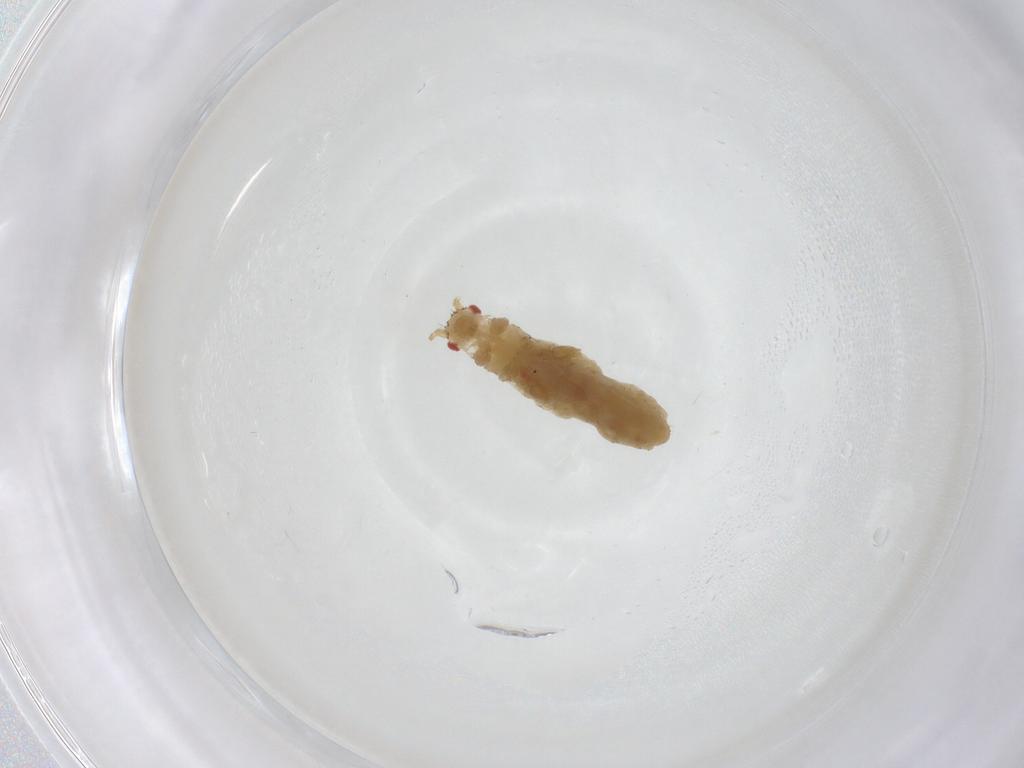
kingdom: Animalia
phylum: Arthropoda
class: Insecta
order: Hemiptera
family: Aphididae
